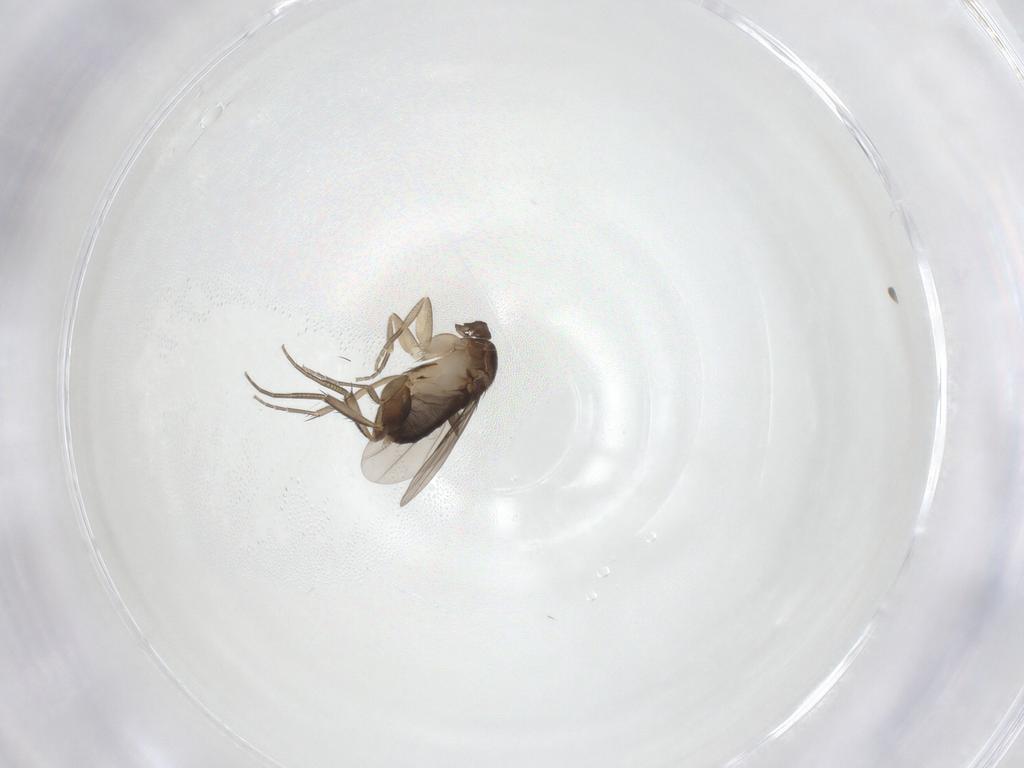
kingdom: Animalia
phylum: Arthropoda
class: Insecta
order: Diptera
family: Phoridae
